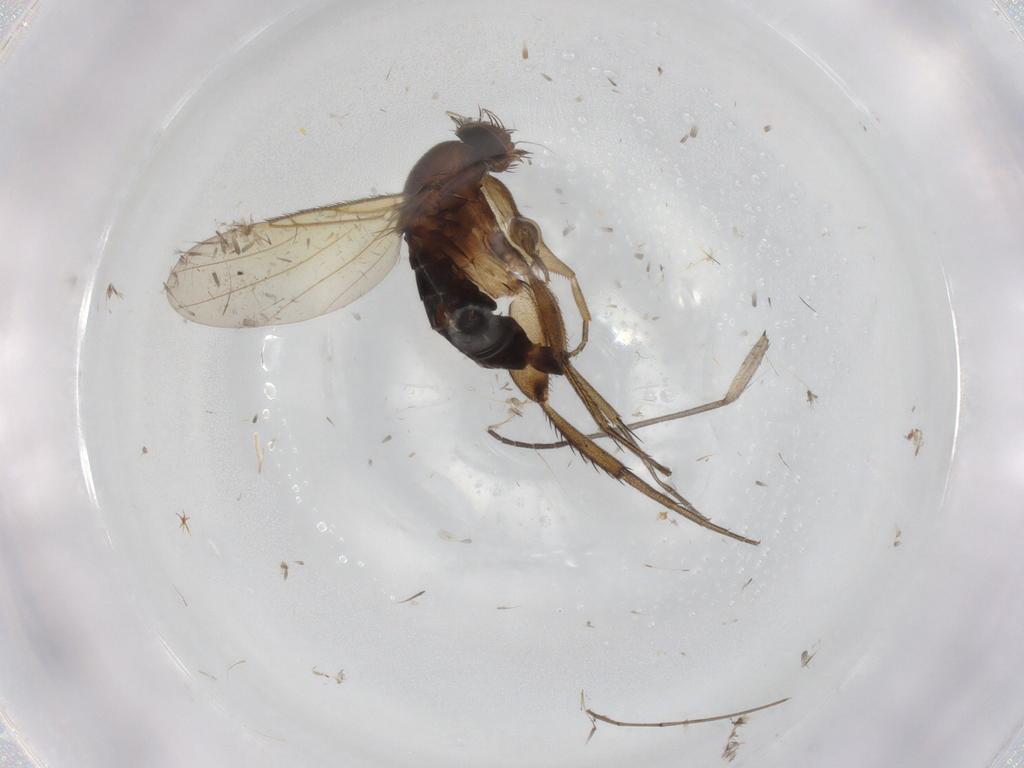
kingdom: Animalia
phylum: Arthropoda
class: Insecta
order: Diptera
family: Phoridae
